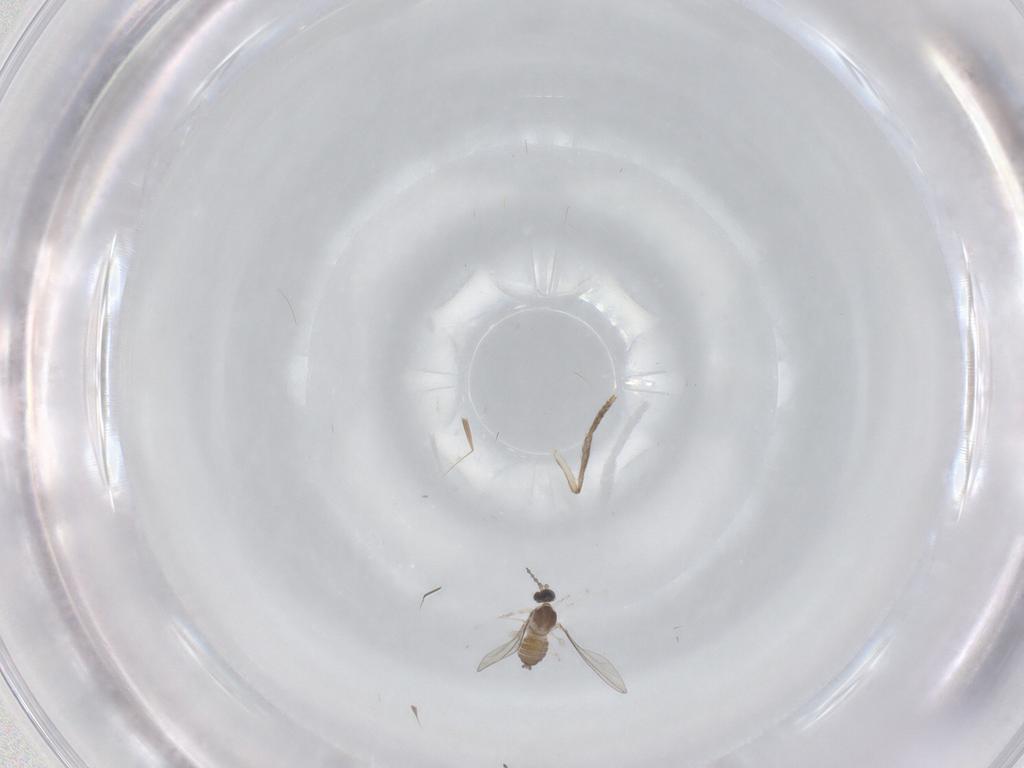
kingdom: Animalia
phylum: Arthropoda
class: Insecta
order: Diptera
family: Cecidomyiidae
